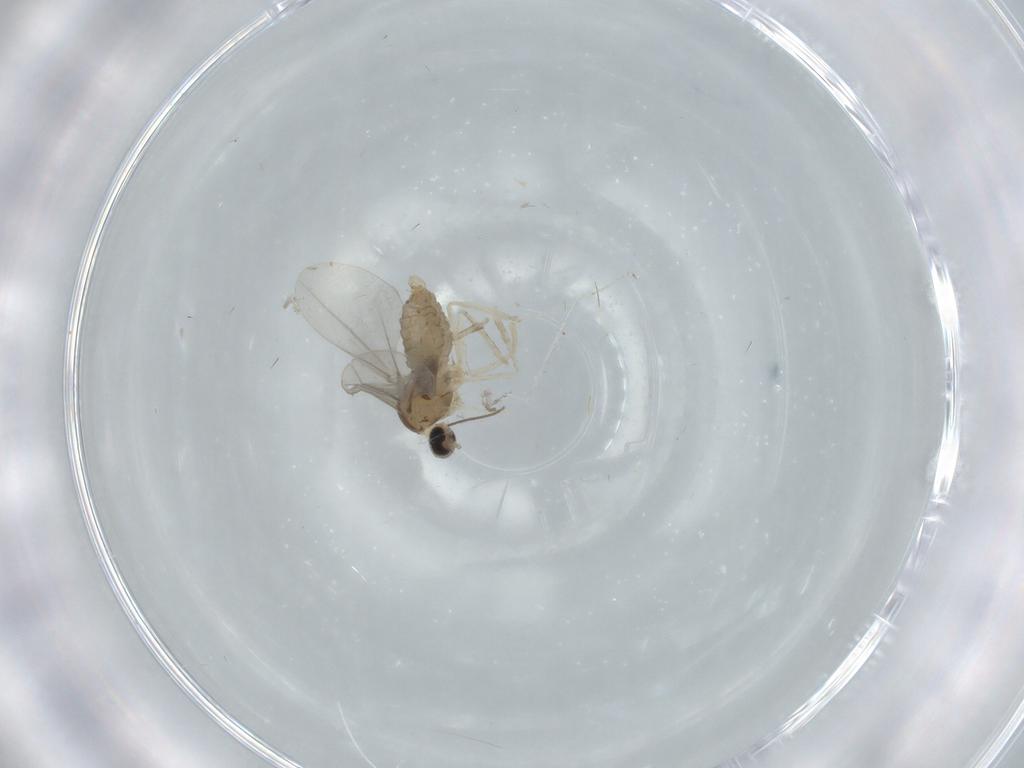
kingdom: Animalia
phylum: Arthropoda
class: Insecta
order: Diptera
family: Cecidomyiidae
